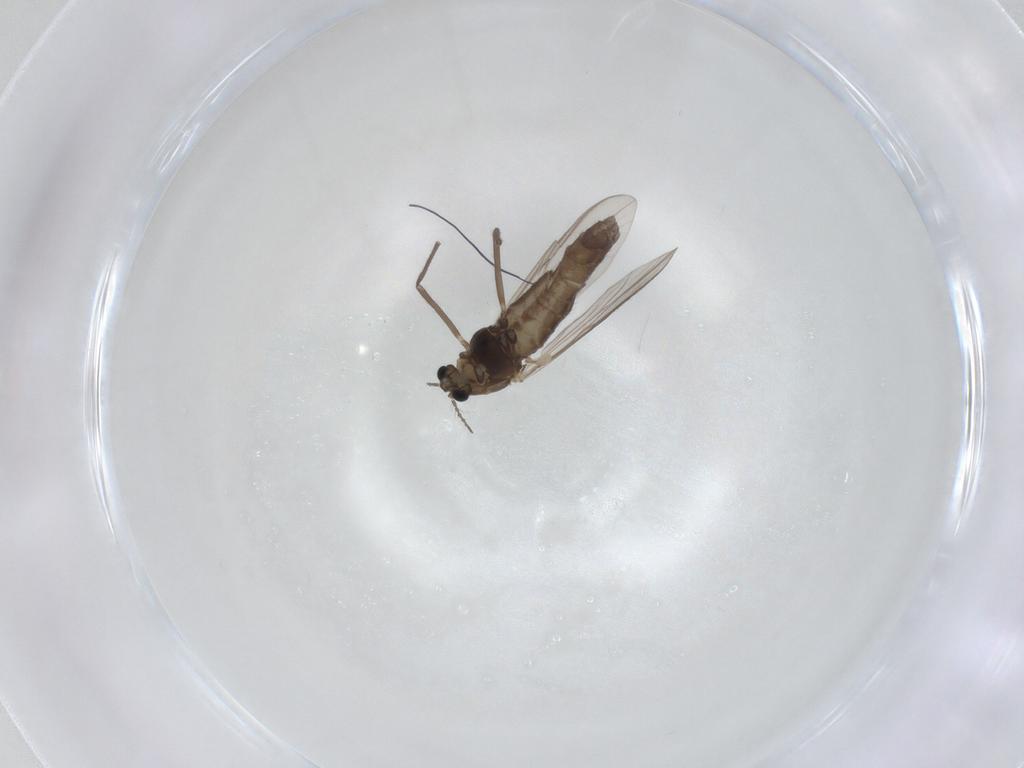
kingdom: Animalia
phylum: Arthropoda
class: Insecta
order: Diptera
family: Chironomidae
